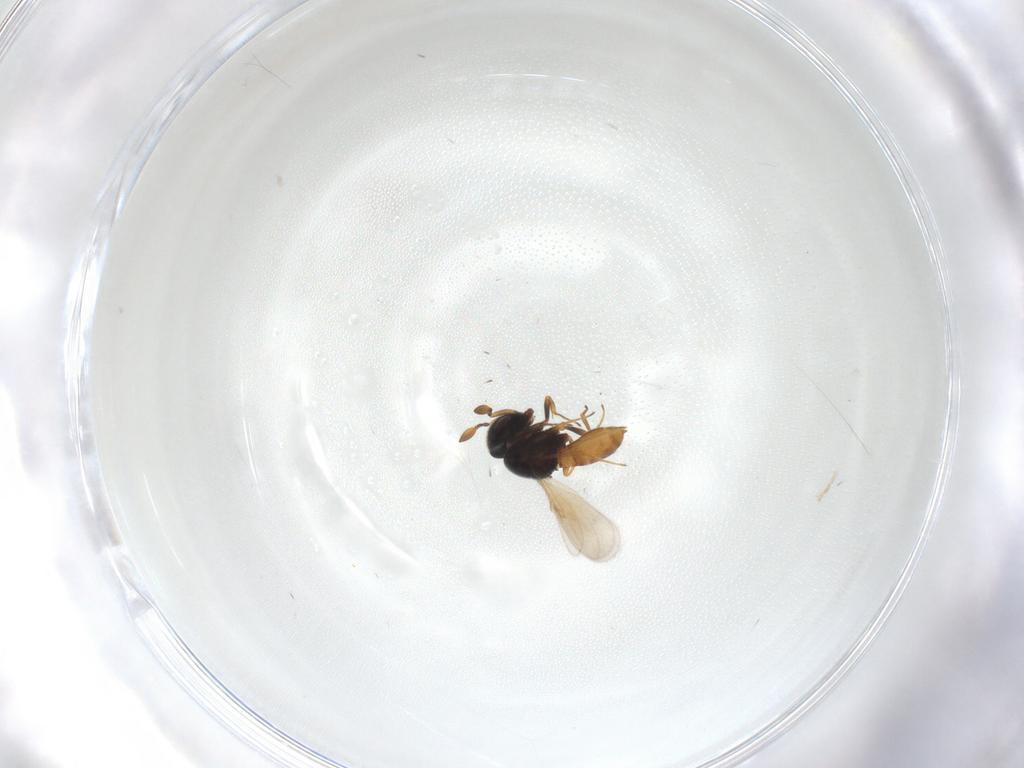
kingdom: Animalia
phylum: Arthropoda
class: Insecta
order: Hymenoptera
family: Scelionidae
